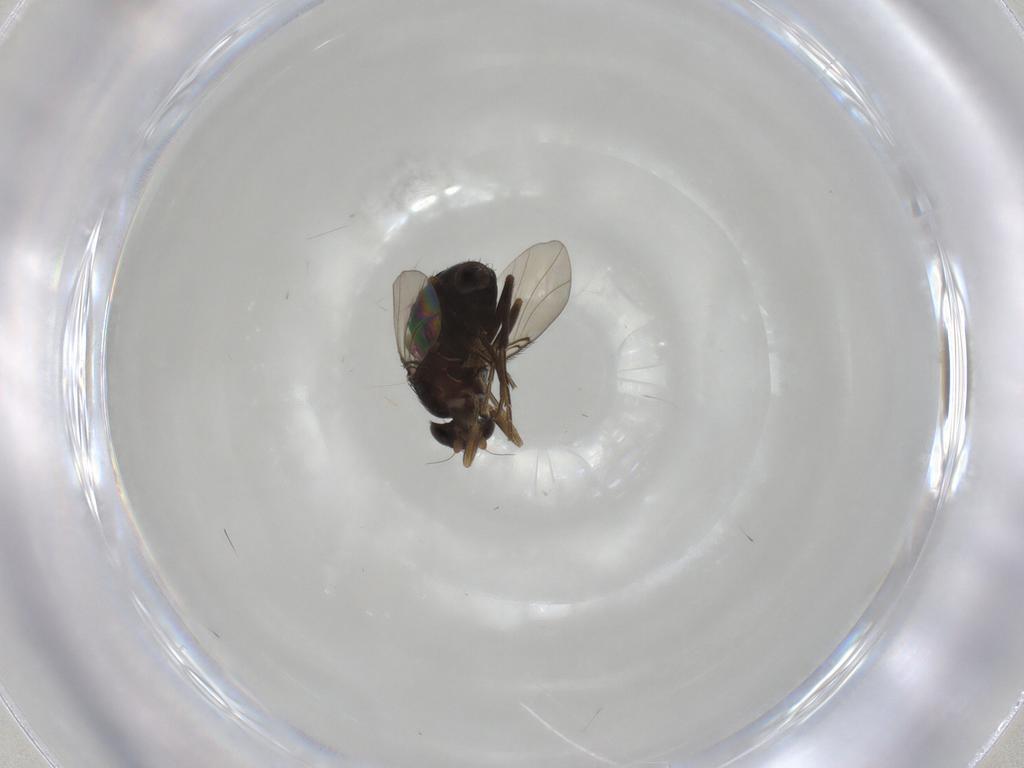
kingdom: Animalia
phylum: Arthropoda
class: Insecta
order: Diptera
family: Phoridae
